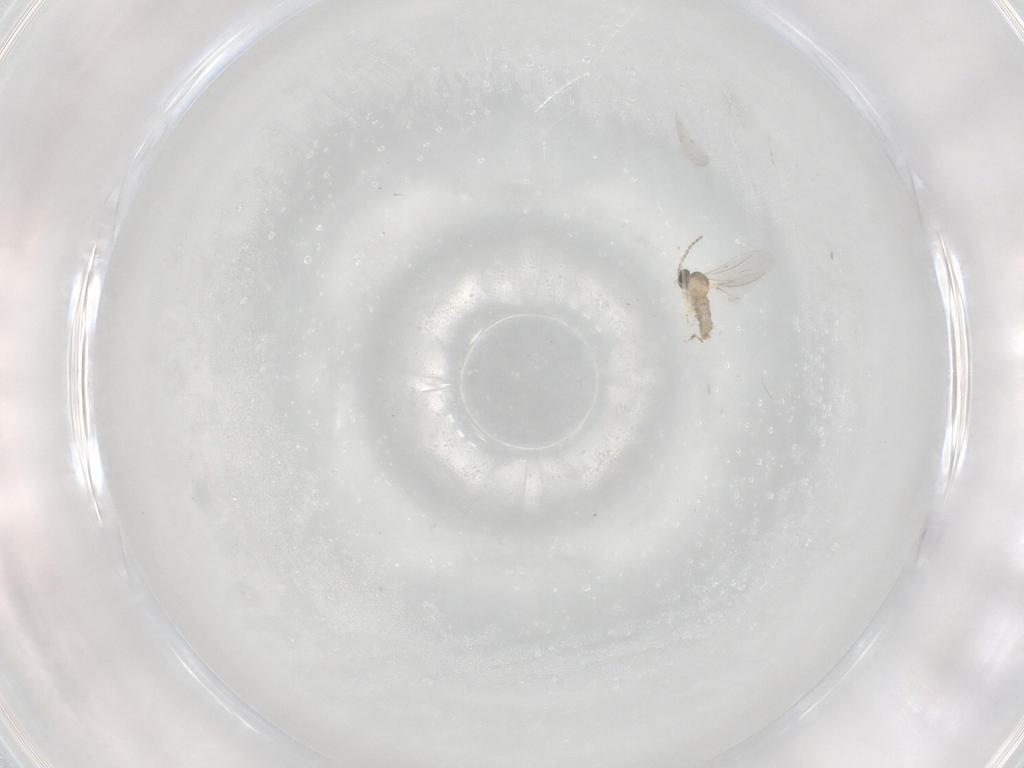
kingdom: Animalia
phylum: Arthropoda
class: Insecta
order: Diptera
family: Cecidomyiidae
